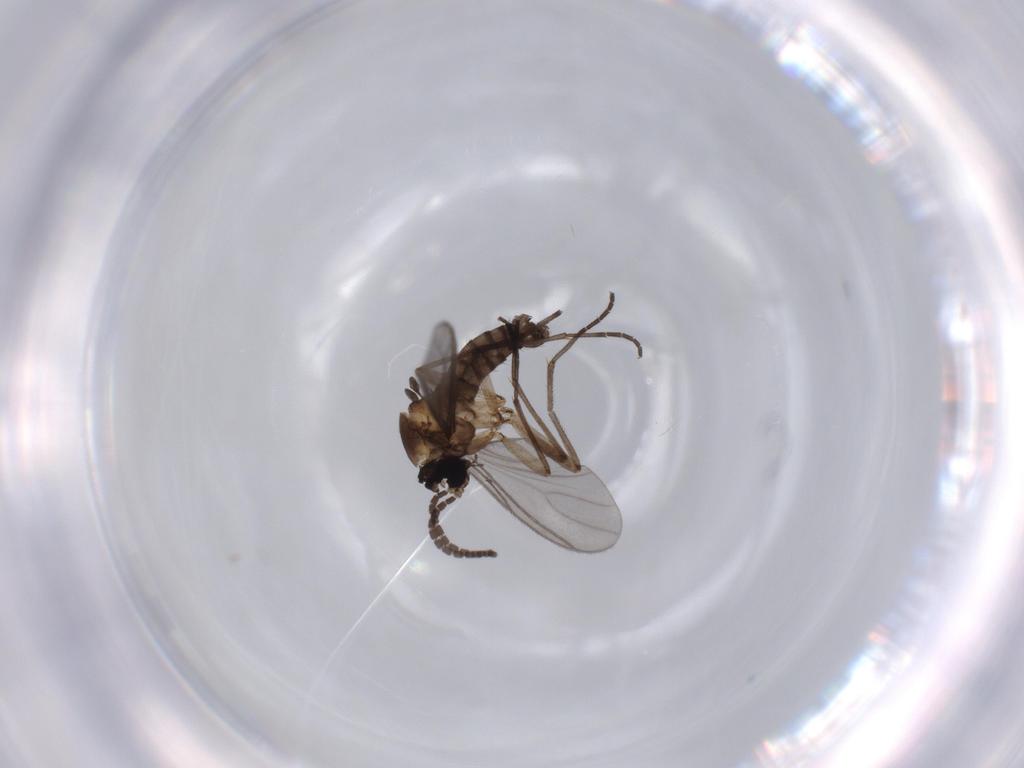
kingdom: Animalia
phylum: Arthropoda
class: Insecta
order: Diptera
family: Sciaridae
